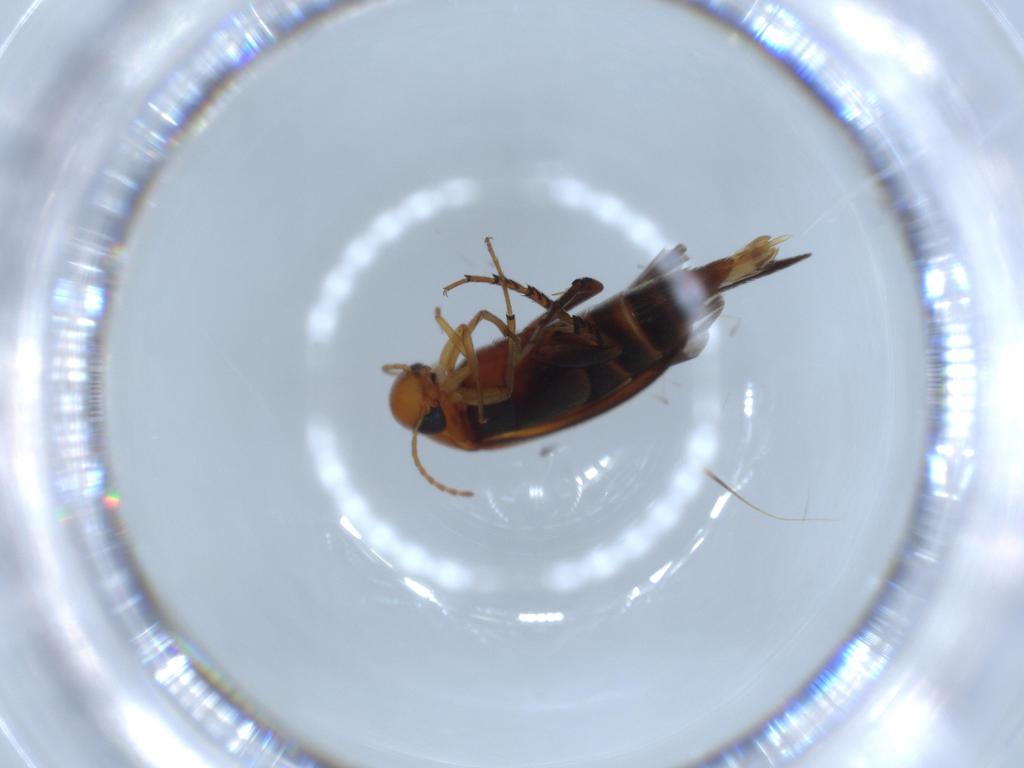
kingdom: Animalia
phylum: Arthropoda
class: Insecta
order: Coleoptera
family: Mordellidae
